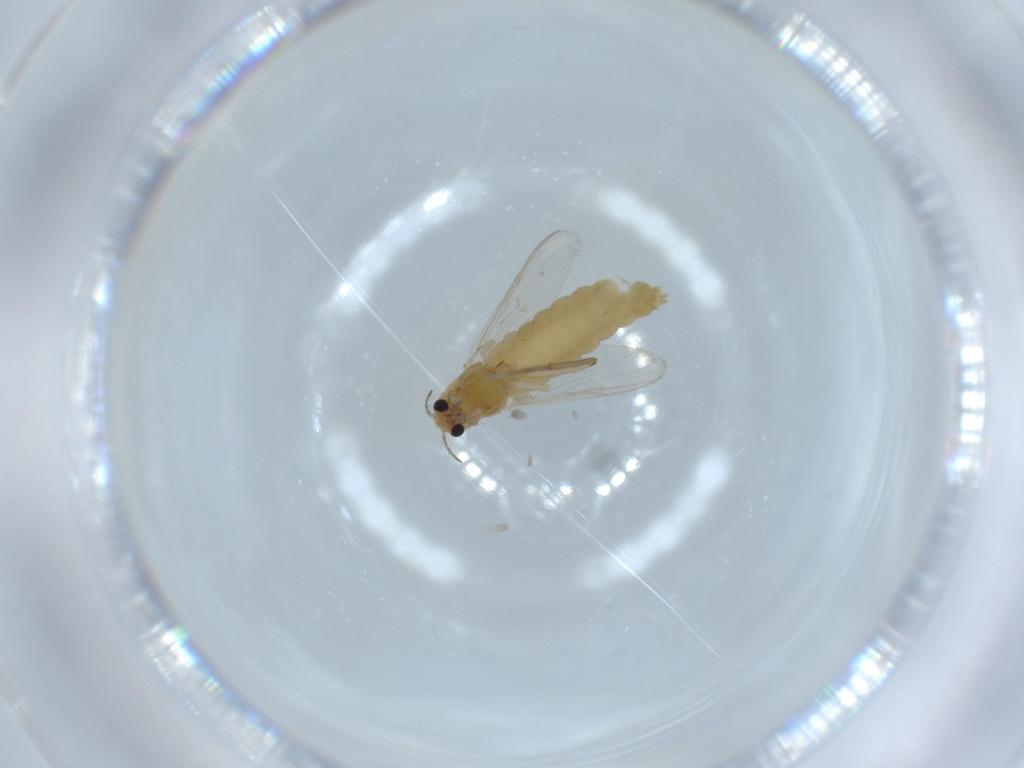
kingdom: Animalia
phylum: Arthropoda
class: Insecta
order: Diptera
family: Chironomidae
